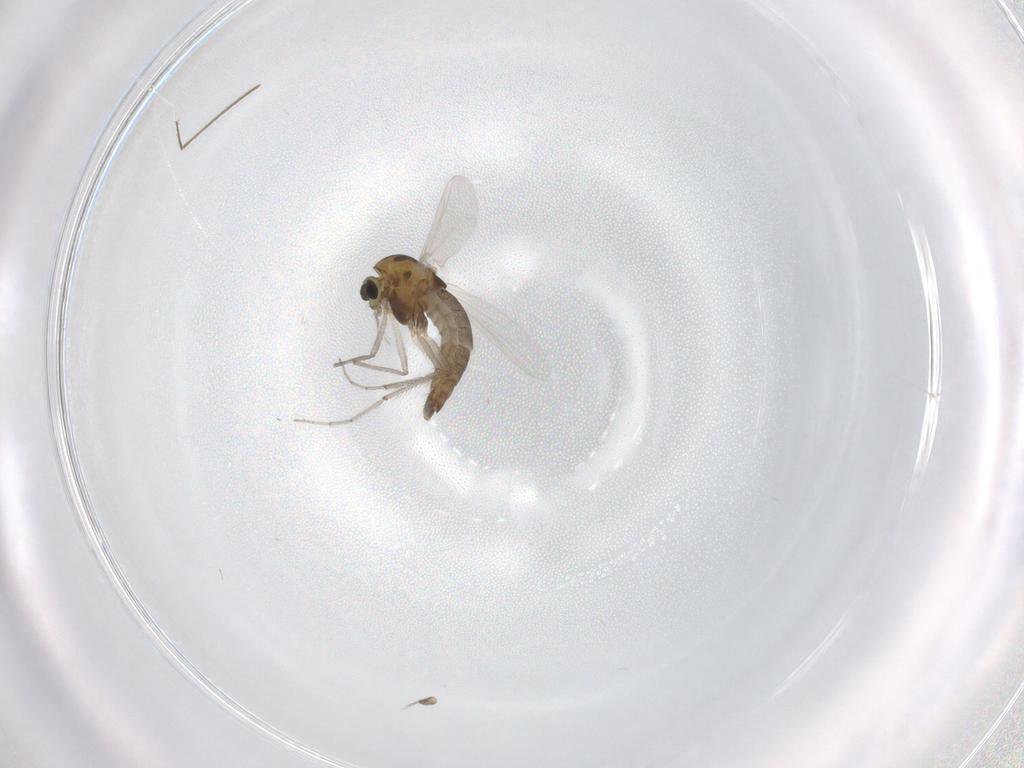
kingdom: Animalia
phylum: Arthropoda
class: Insecta
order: Diptera
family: Chironomidae
